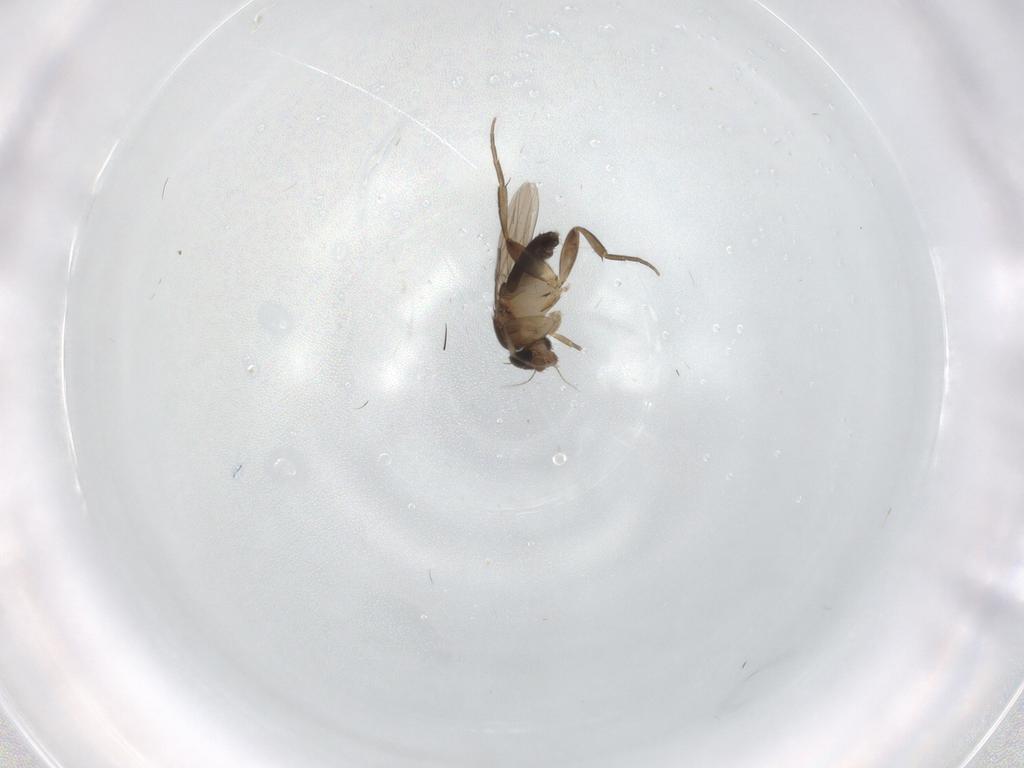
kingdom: Animalia
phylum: Arthropoda
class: Insecta
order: Diptera
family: Phoridae
